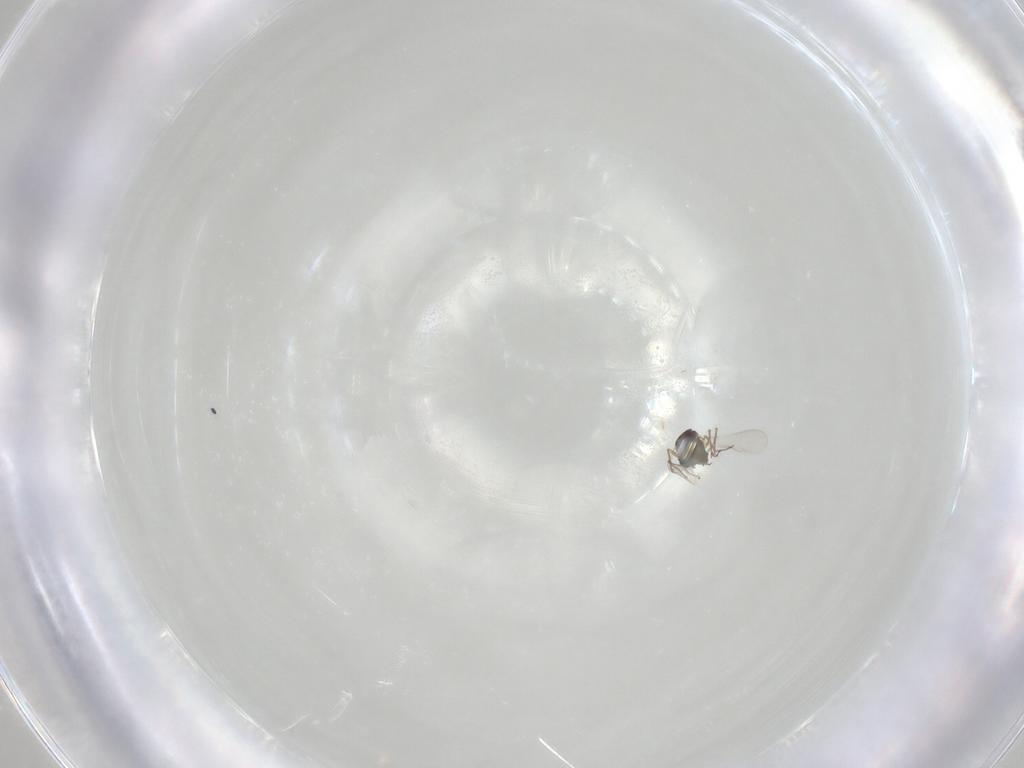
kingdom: Animalia
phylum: Arthropoda
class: Insecta
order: Diptera
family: Chironomidae
